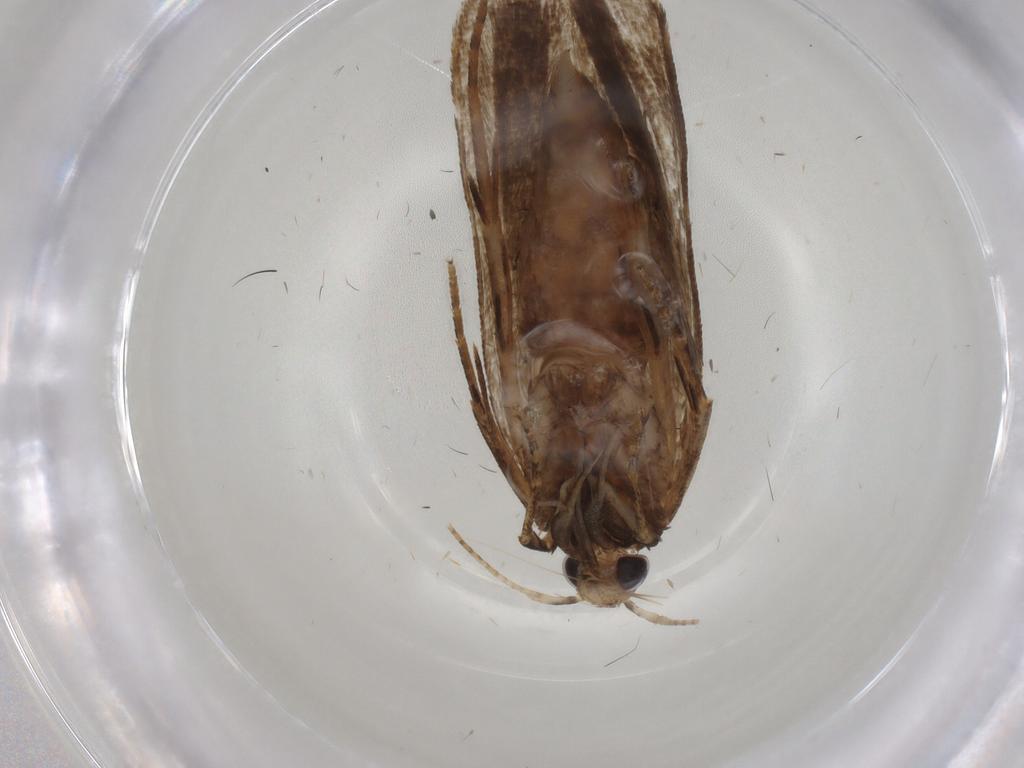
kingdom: Animalia
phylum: Arthropoda
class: Insecta
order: Lepidoptera
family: Gelechiidae
